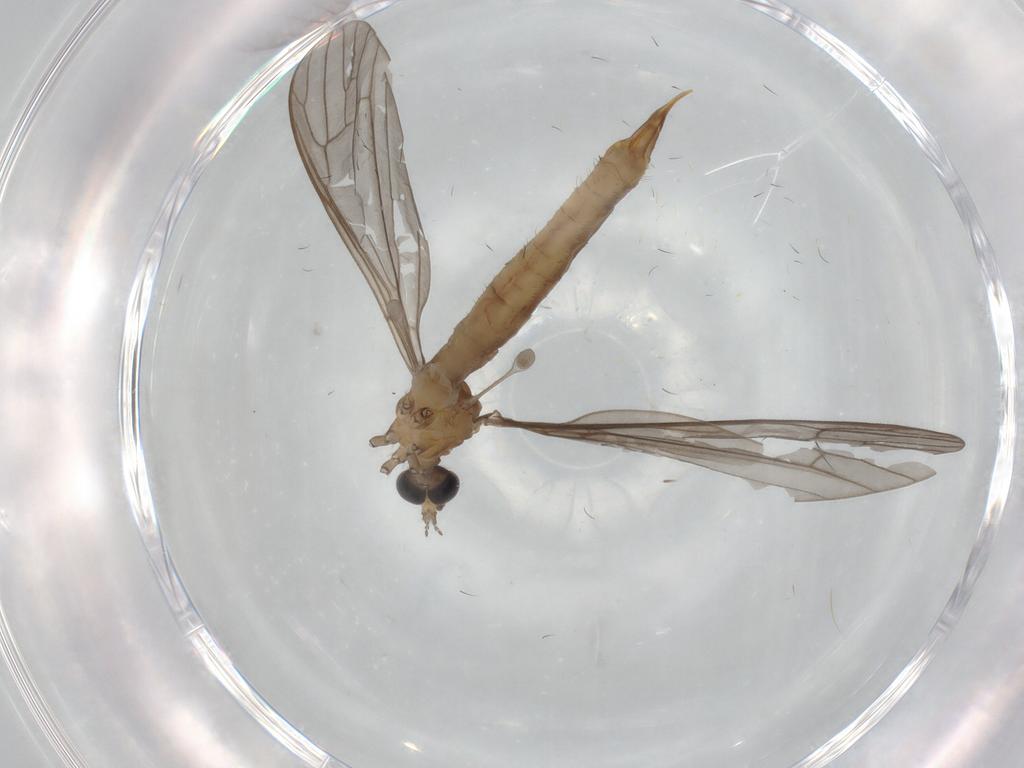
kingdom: Animalia
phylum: Arthropoda
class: Insecta
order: Diptera
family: Limoniidae
